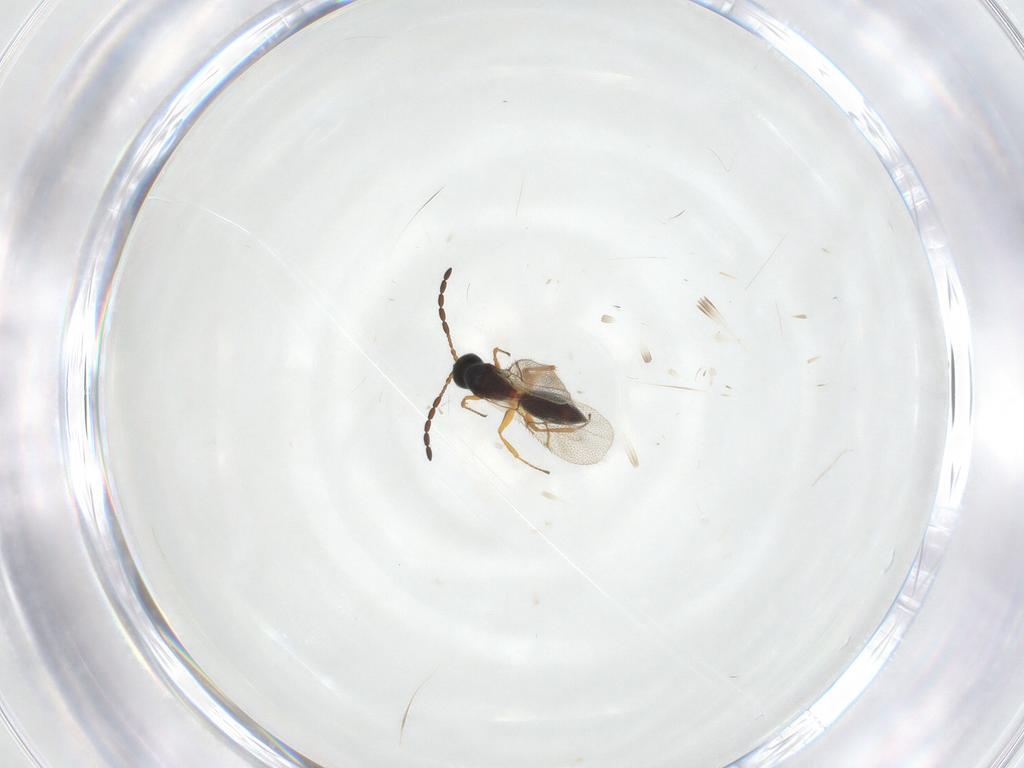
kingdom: Animalia
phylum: Arthropoda
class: Insecta
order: Hymenoptera
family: Figitidae
